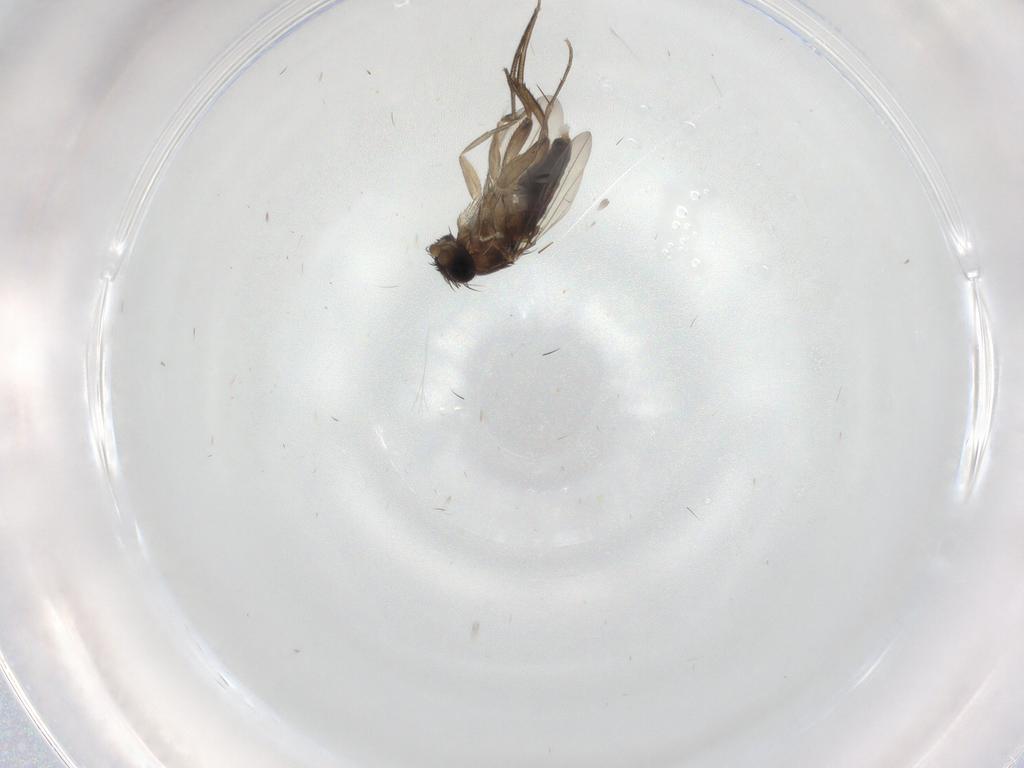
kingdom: Animalia
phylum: Arthropoda
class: Insecta
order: Diptera
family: Phoridae
